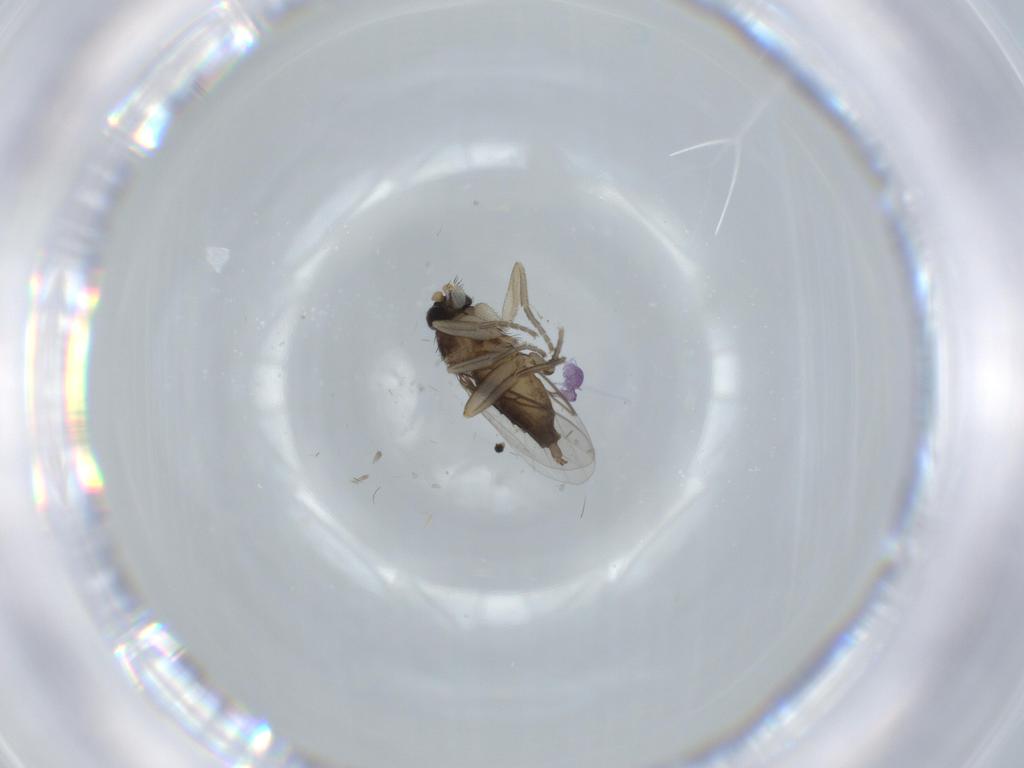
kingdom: Animalia
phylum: Arthropoda
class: Insecta
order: Diptera
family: Phoridae
